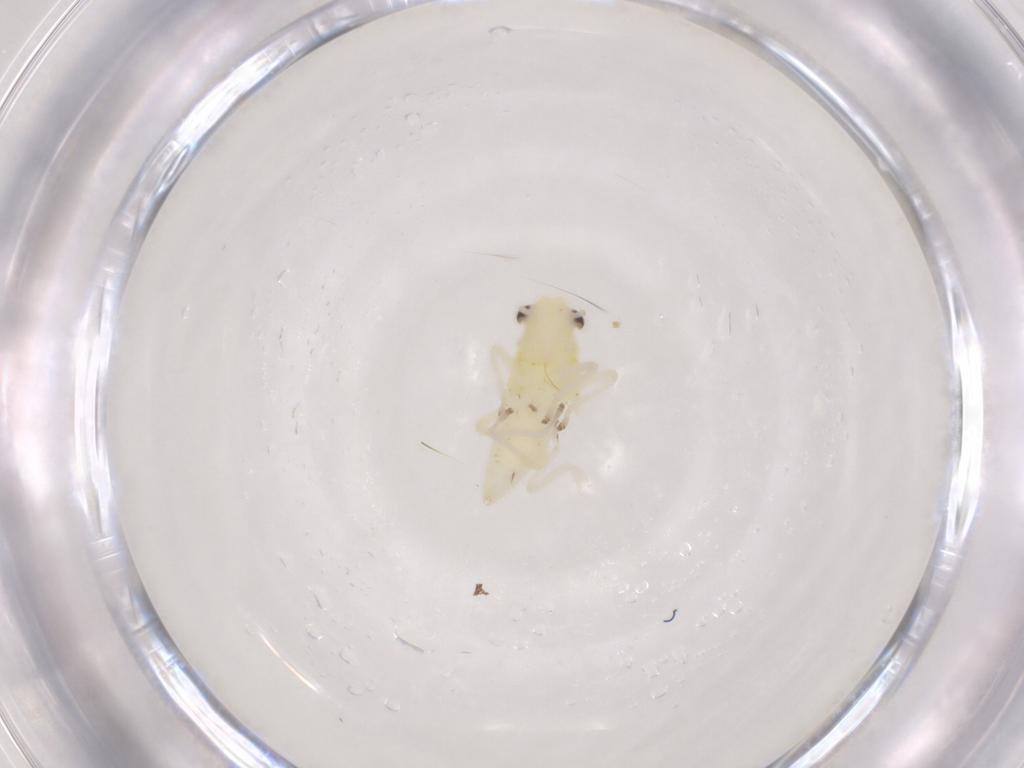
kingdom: Animalia
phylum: Arthropoda
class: Insecta
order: Hemiptera
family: Cicadellidae
